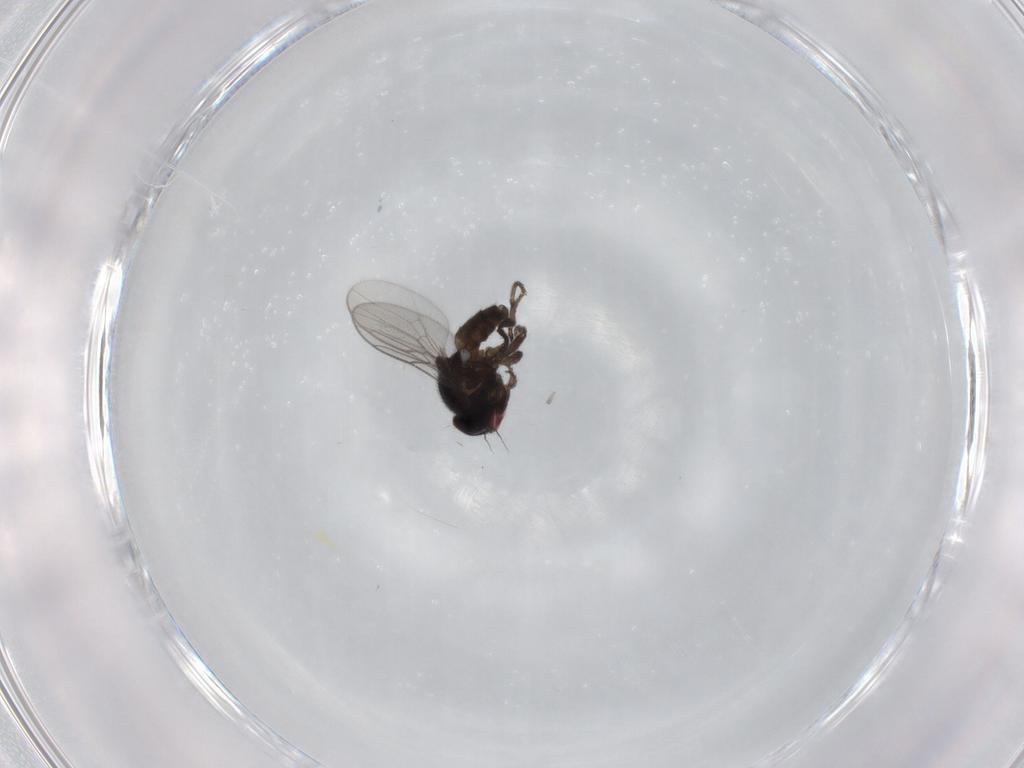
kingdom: Animalia
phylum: Arthropoda
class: Insecta
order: Diptera
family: Chloropidae
